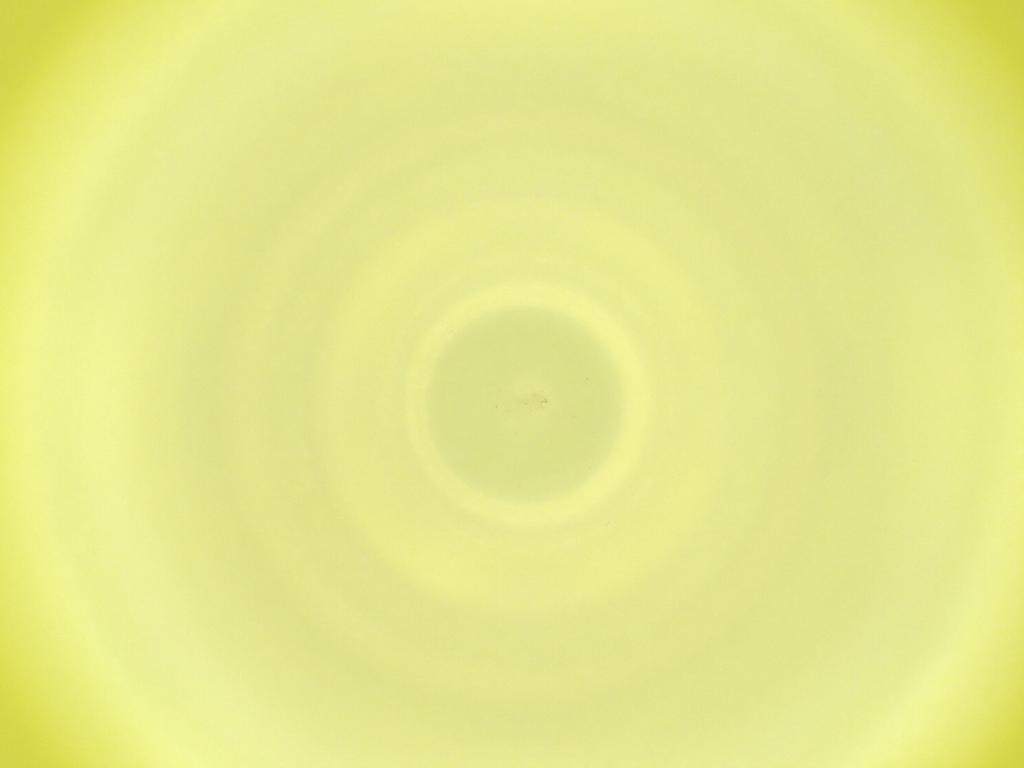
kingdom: Animalia
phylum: Arthropoda
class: Insecta
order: Diptera
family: Cecidomyiidae
